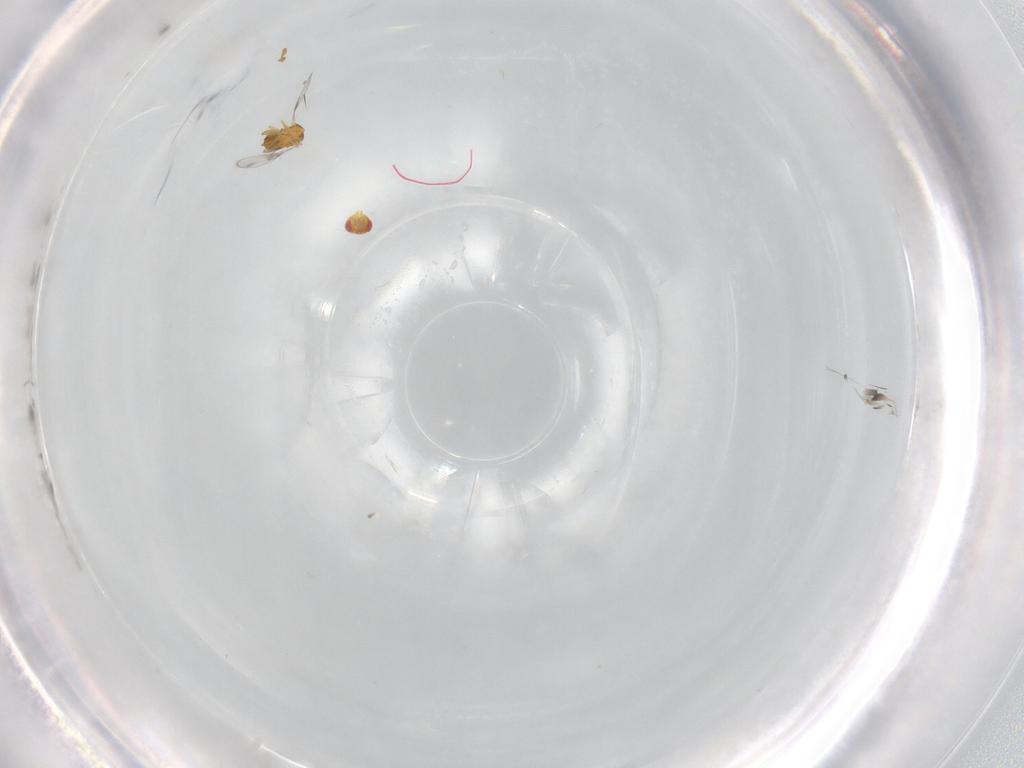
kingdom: Animalia
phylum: Arthropoda
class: Insecta
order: Hymenoptera
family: Trichogrammatidae
